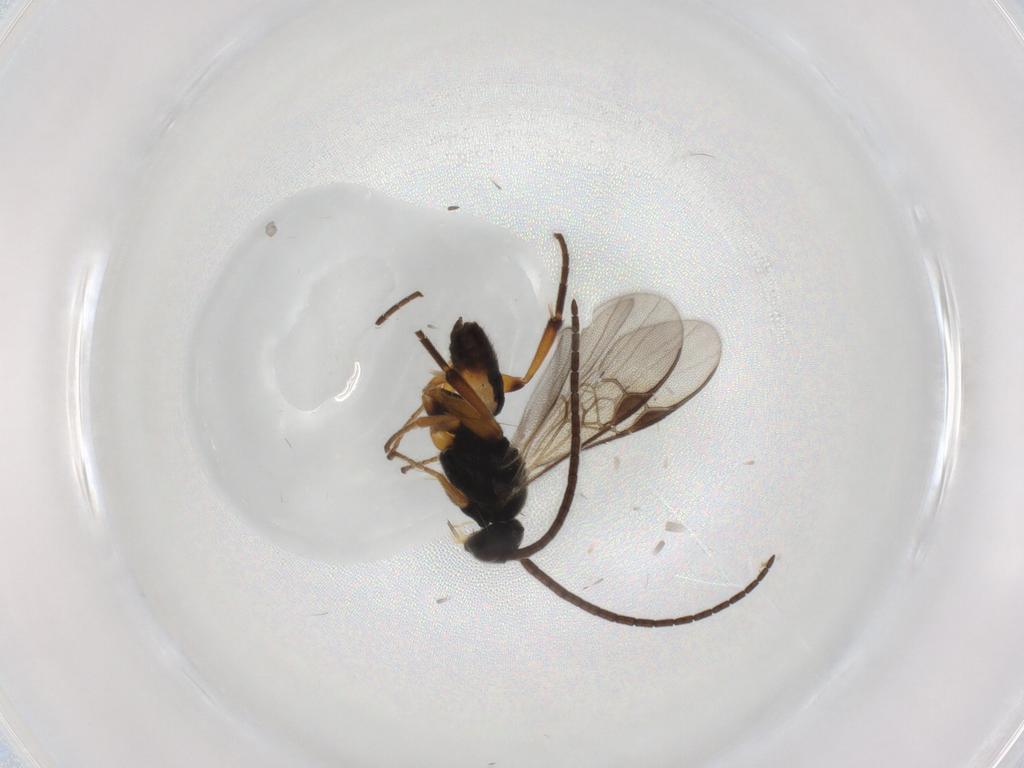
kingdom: Animalia
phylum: Arthropoda
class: Insecta
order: Hymenoptera
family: Braconidae
